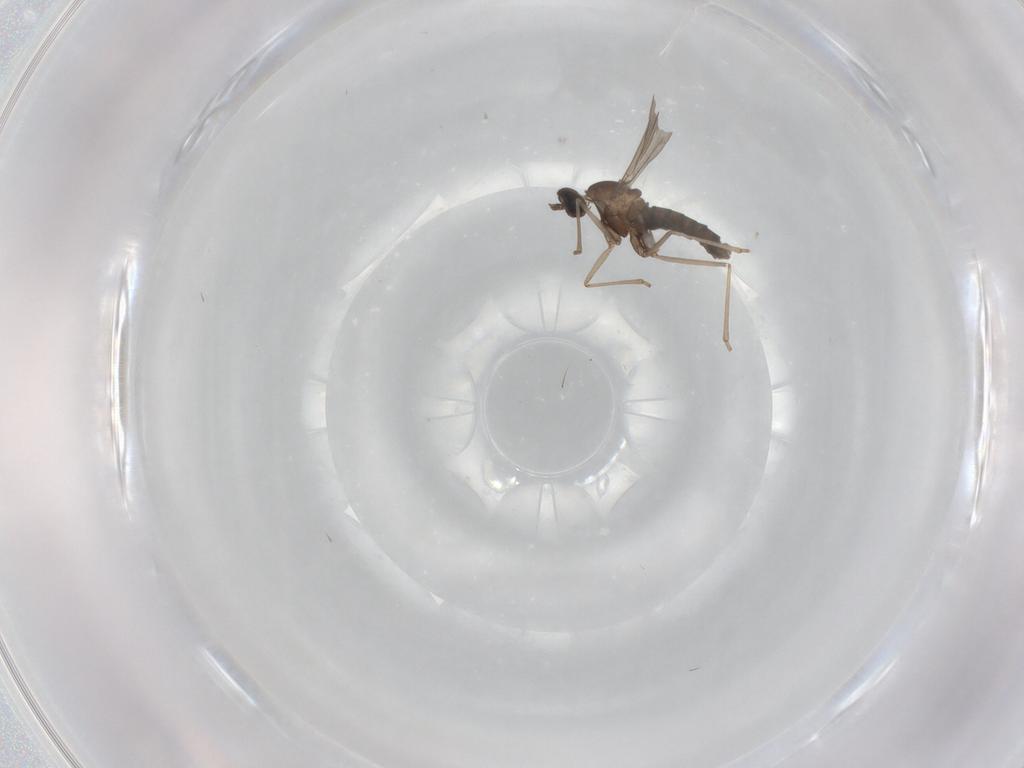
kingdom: Animalia
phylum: Arthropoda
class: Insecta
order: Diptera
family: Cecidomyiidae
